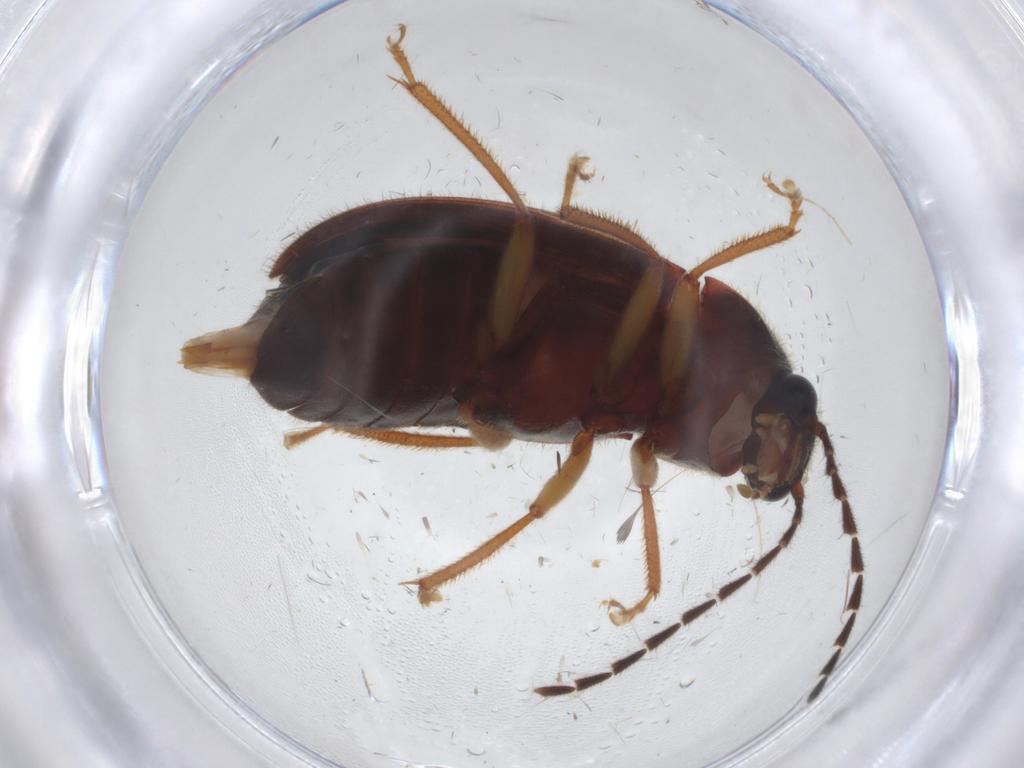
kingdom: Animalia
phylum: Arthropoda
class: Insecta
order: Coleoptera
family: Ptilodactylidae
